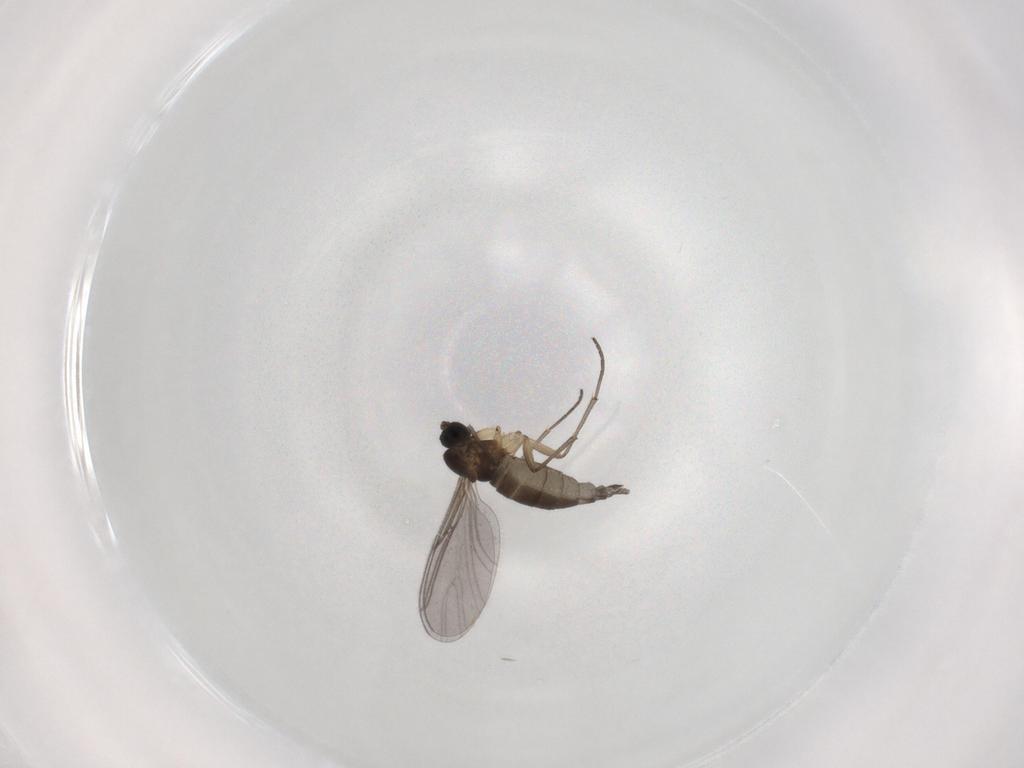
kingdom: Animalia
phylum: Arthropoda
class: Insecta
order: Diptera
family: Sciaridae
